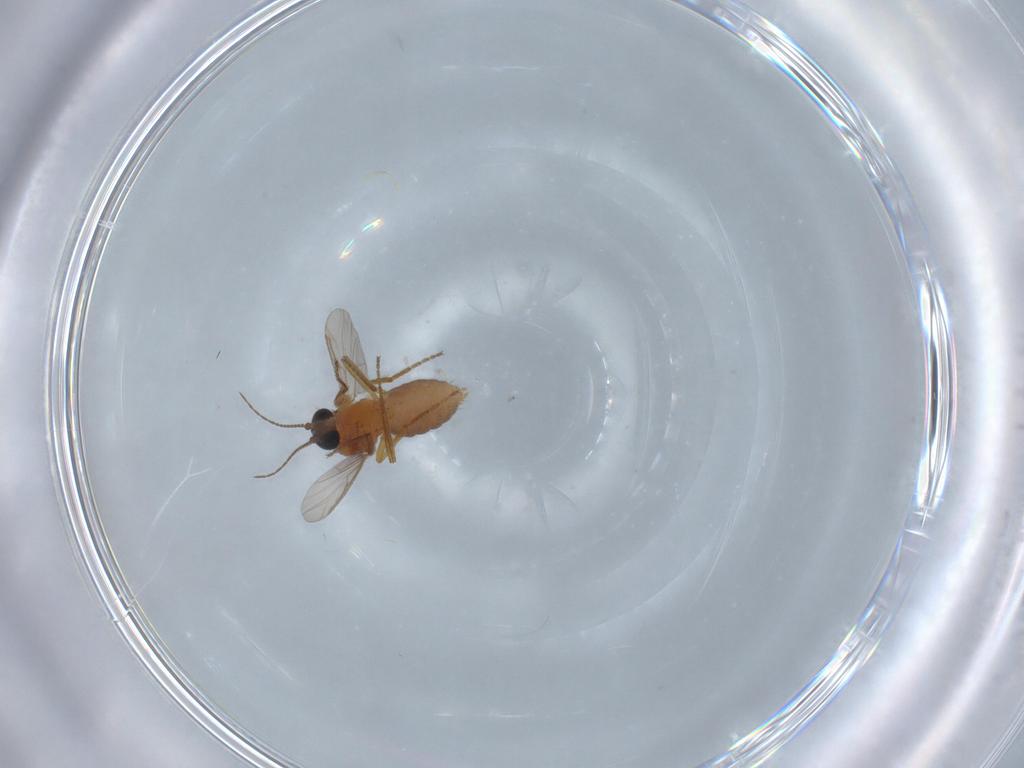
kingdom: Animalia
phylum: Arthropoda
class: Insecta
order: Diptera
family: Ceratopogonidae
